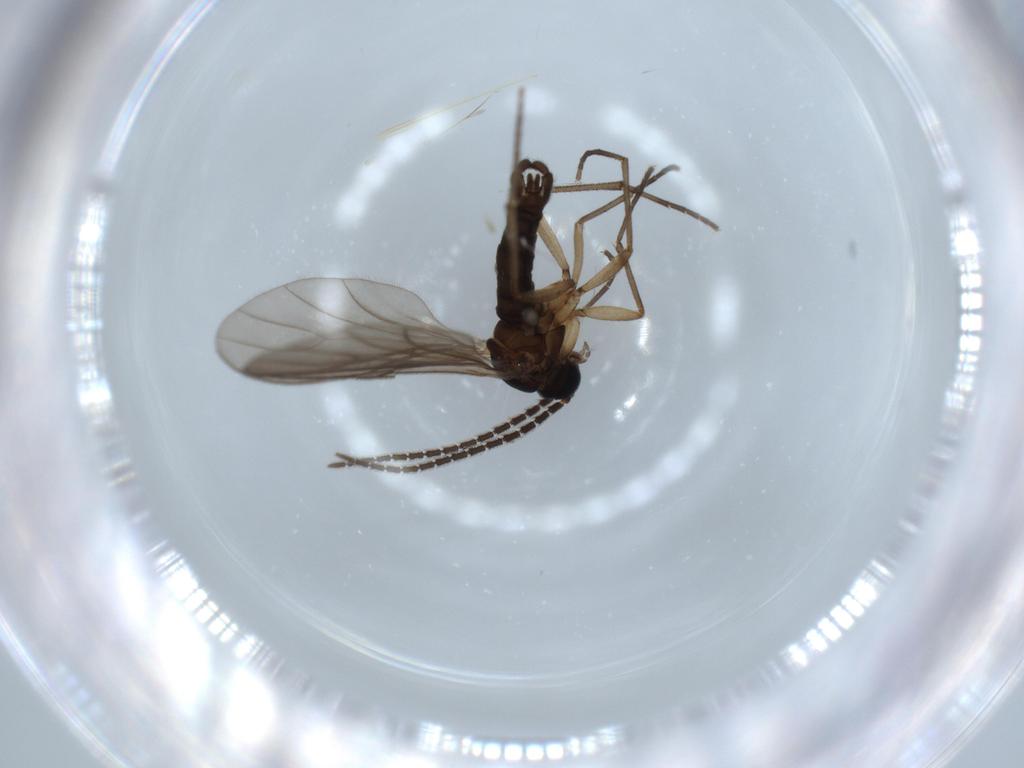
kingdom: Animalia
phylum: Arthropoda
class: Insecta
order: Diptera
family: Sciaridae
